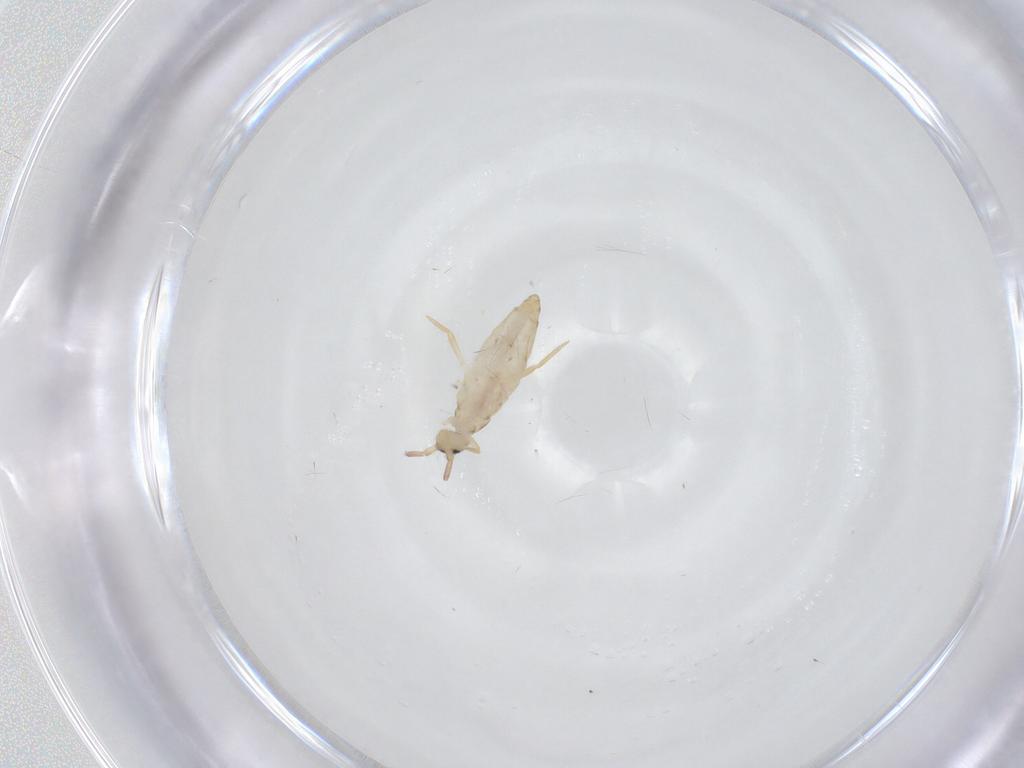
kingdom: Animalia
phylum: Arthropoda
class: Collembola
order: Entomobryomorpha
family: Entomobryidae
